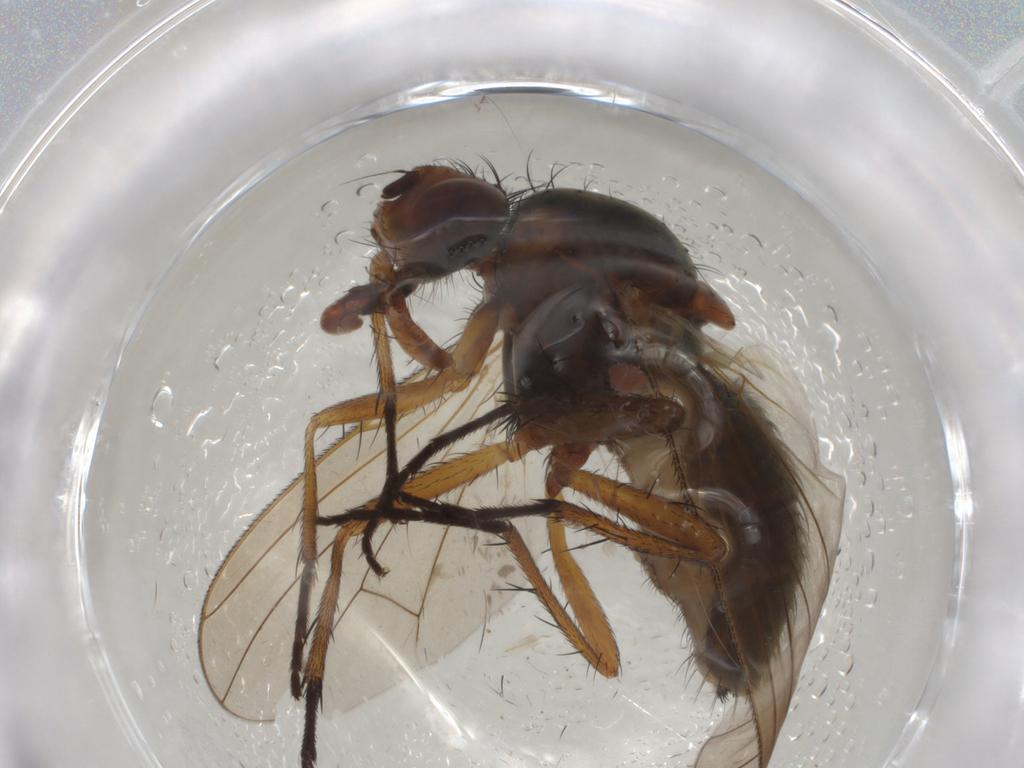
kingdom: Animalia
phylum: Arthropoda
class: Insecta
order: Diptera
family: Anthomyiidae
